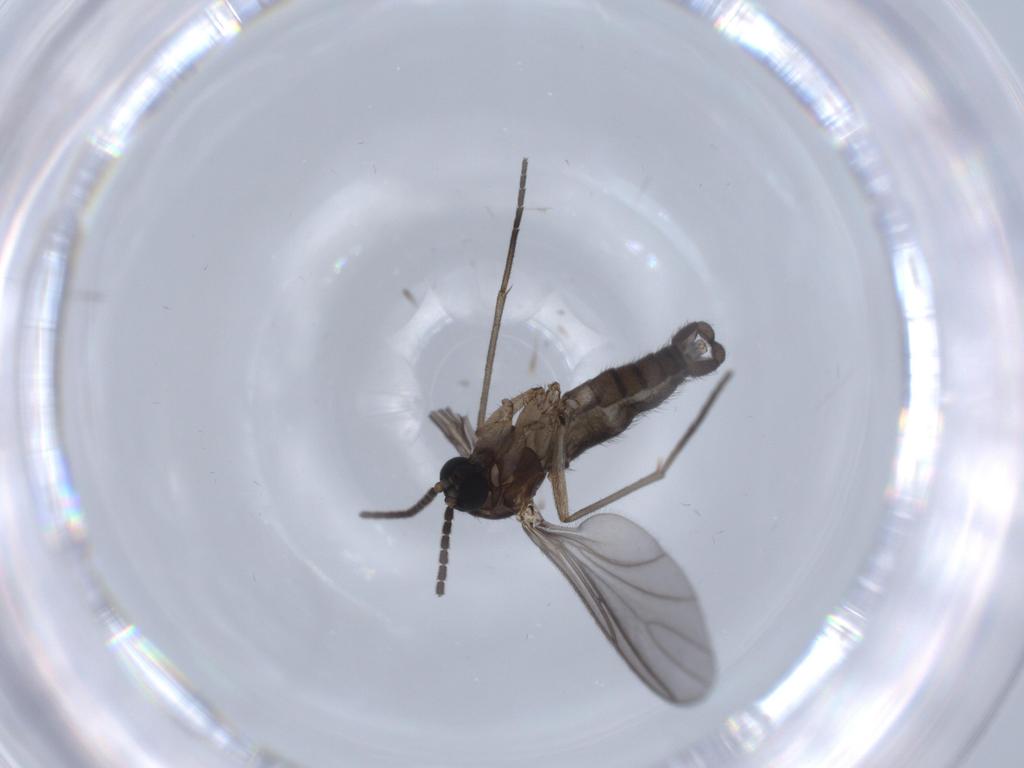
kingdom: Animalia
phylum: Arthropoda
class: Insecta
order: Diptera
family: Sciaridae
